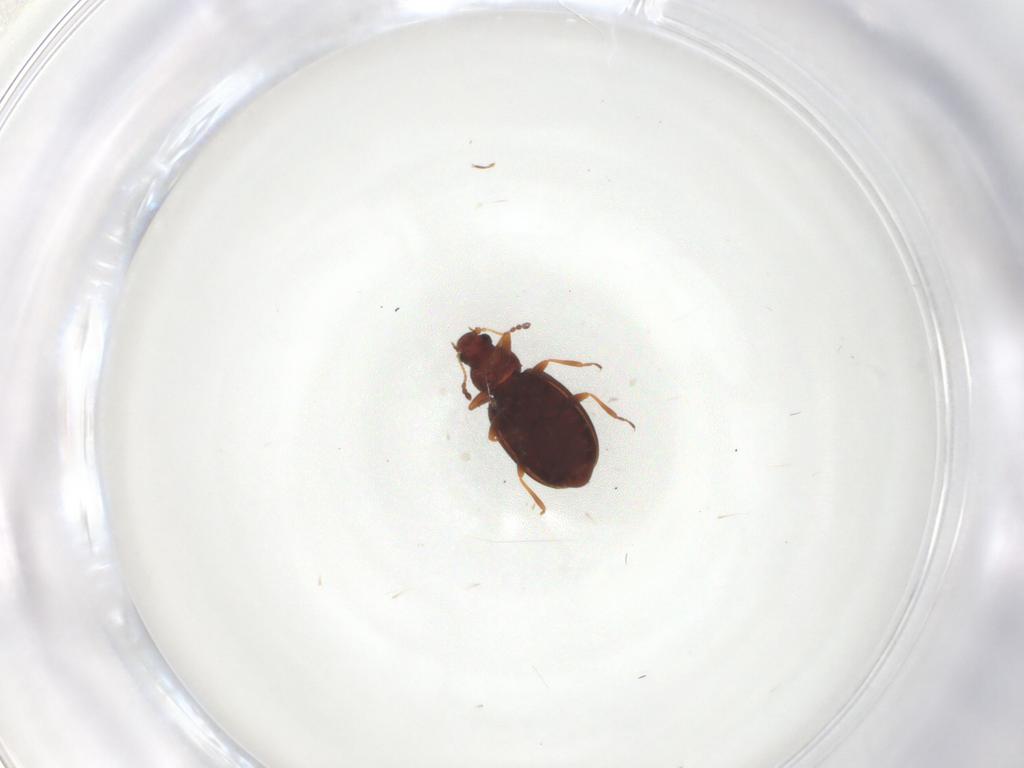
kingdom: Animalia
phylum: Arthropoda
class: Insecta
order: Coleoptera
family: Latridiidae
